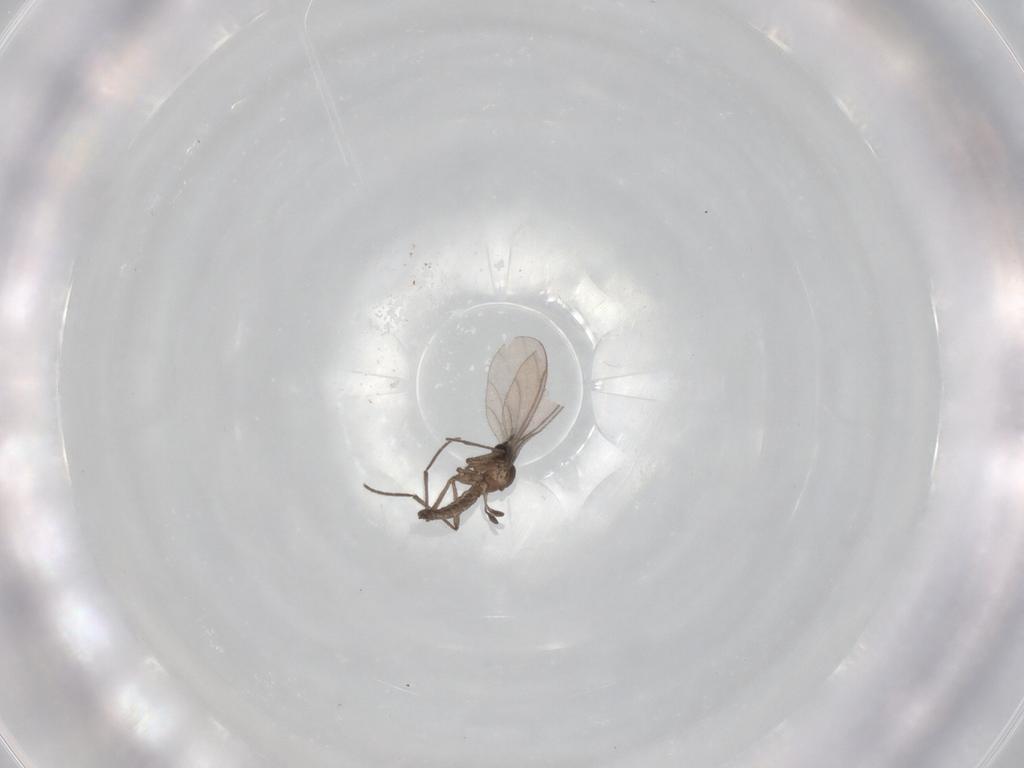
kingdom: Animalia
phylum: Arthropoda
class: Insecta
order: Diptera
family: Sciaridae
